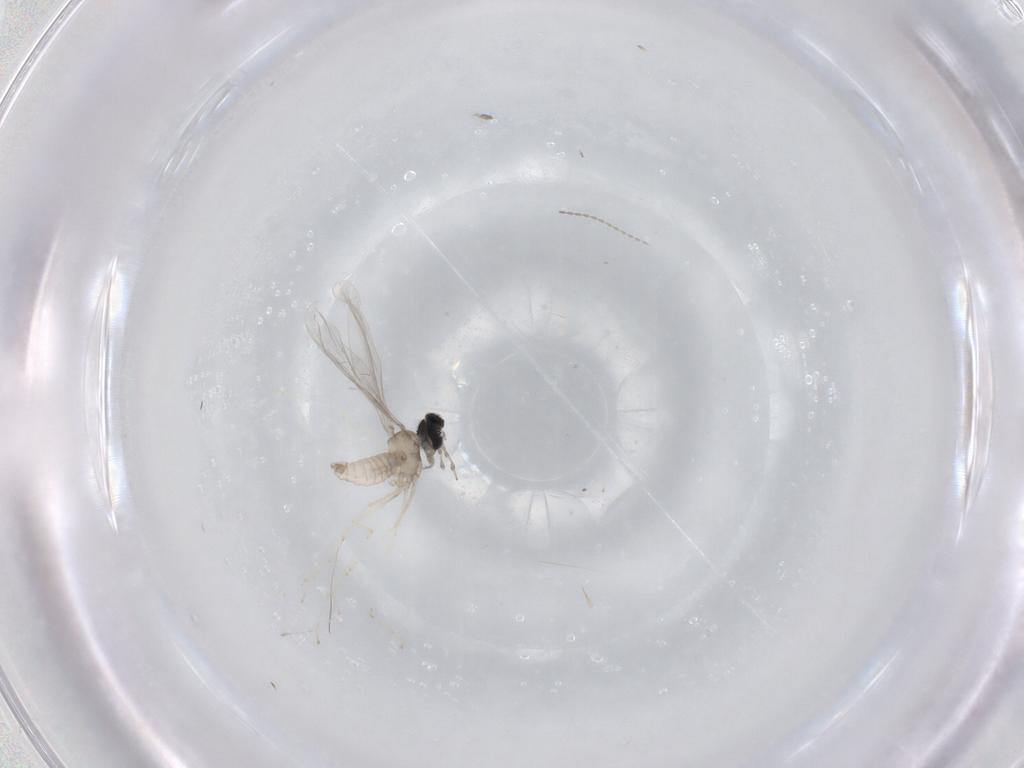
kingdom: Animalia
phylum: Arthropoda
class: Insecta
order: Diptera
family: Cecidomyiidae
